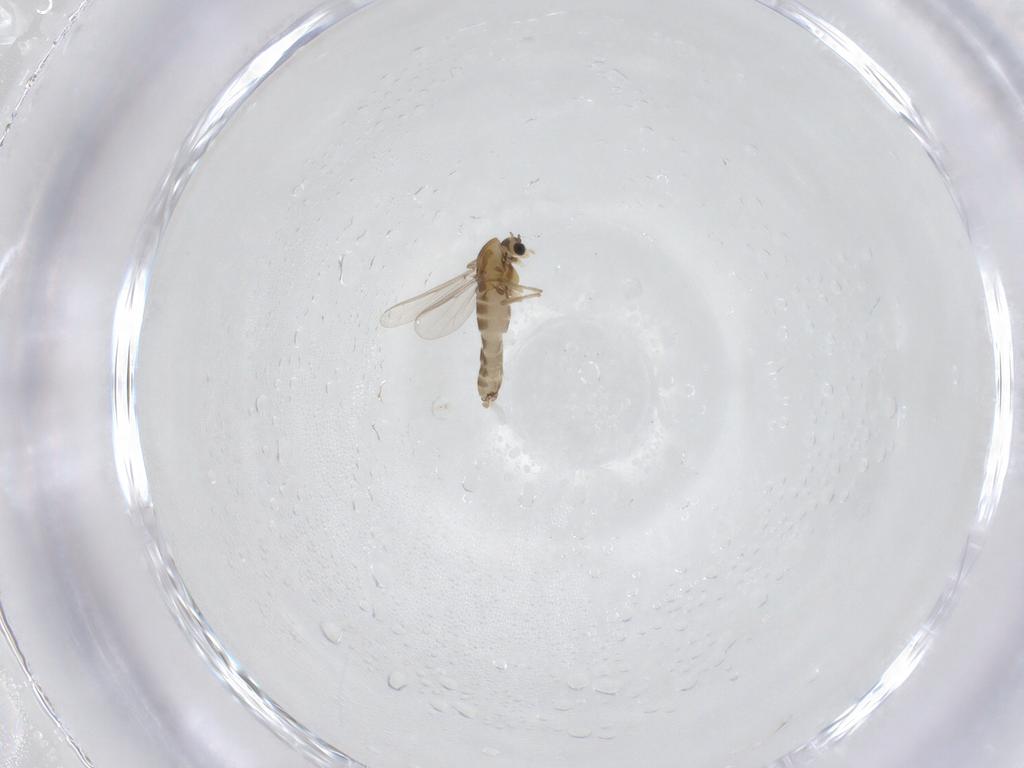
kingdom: Animalia
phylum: Arthropoda
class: Insecta
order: Diptera
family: Chironomidae
